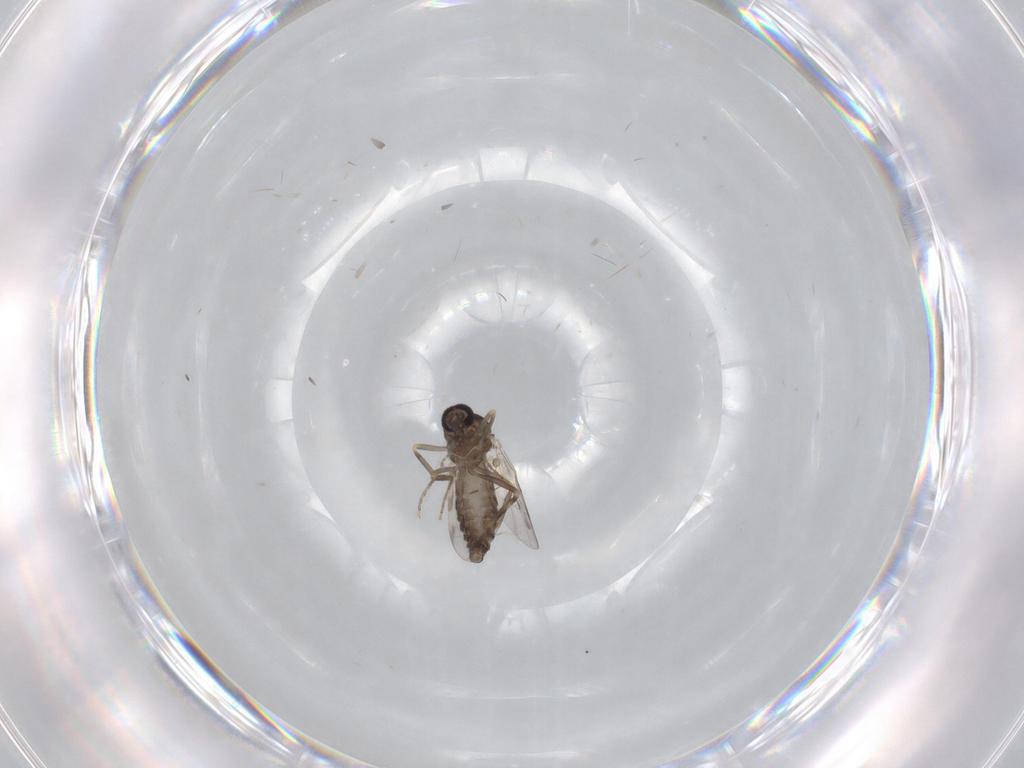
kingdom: Animalia
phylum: Arthropoda
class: Insecta
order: Diptera
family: Ceratopogonidae
